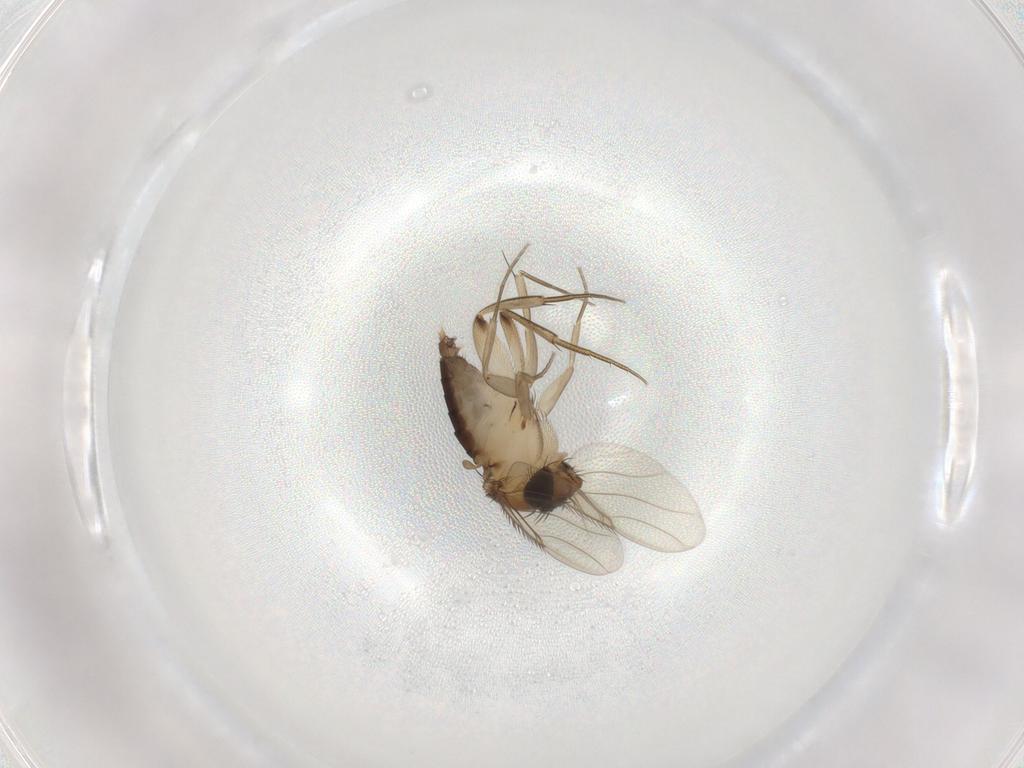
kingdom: Animalia
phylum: Arthropoda
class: Insecta
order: Diptera
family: Phoridae
